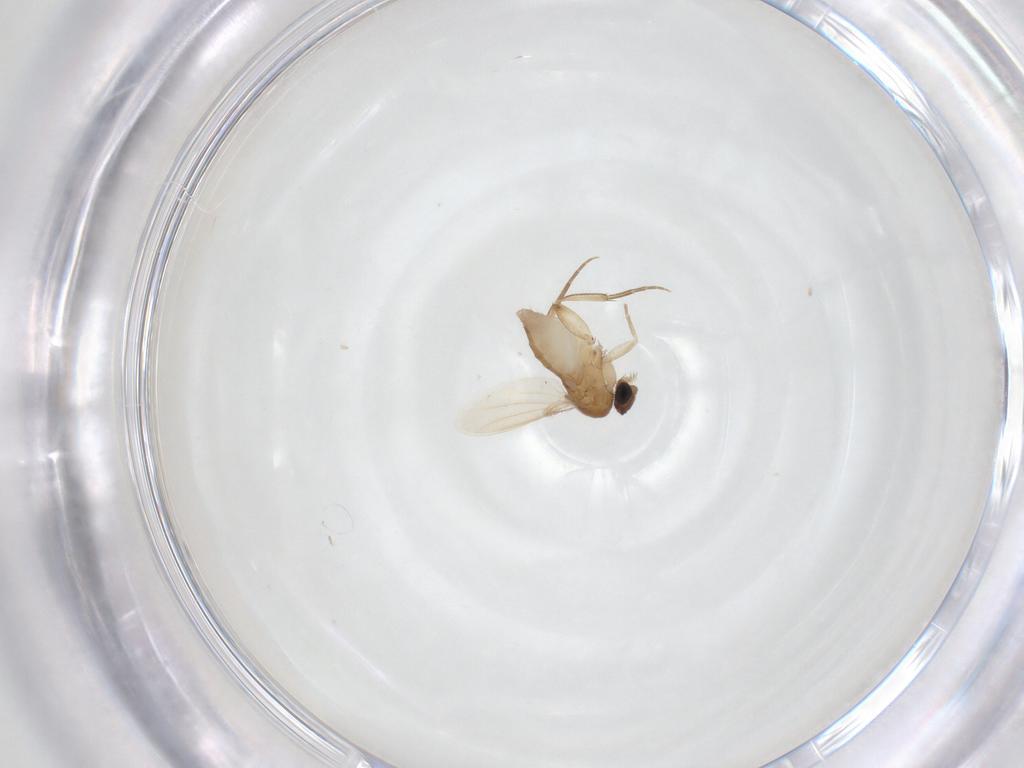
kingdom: Animalia
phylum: Arthropoda
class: Insecta
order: Diptera
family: Phoridae
